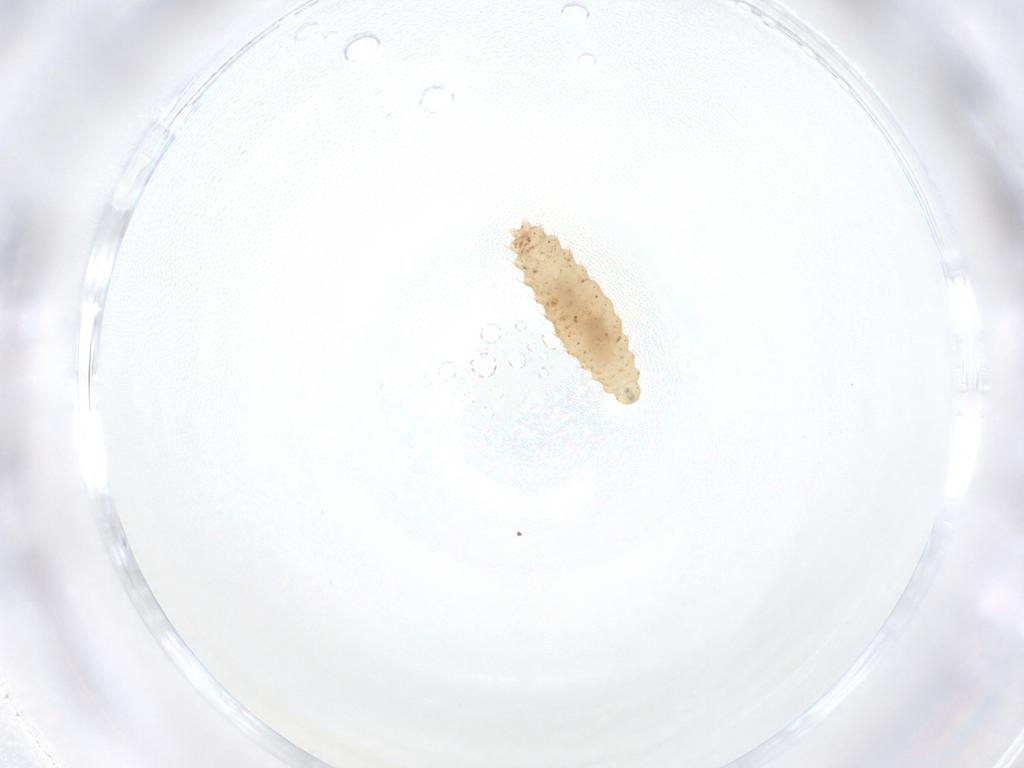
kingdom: Animalia
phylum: Arthropoda
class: Insecta
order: Diptera
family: Cecidomyiidae
